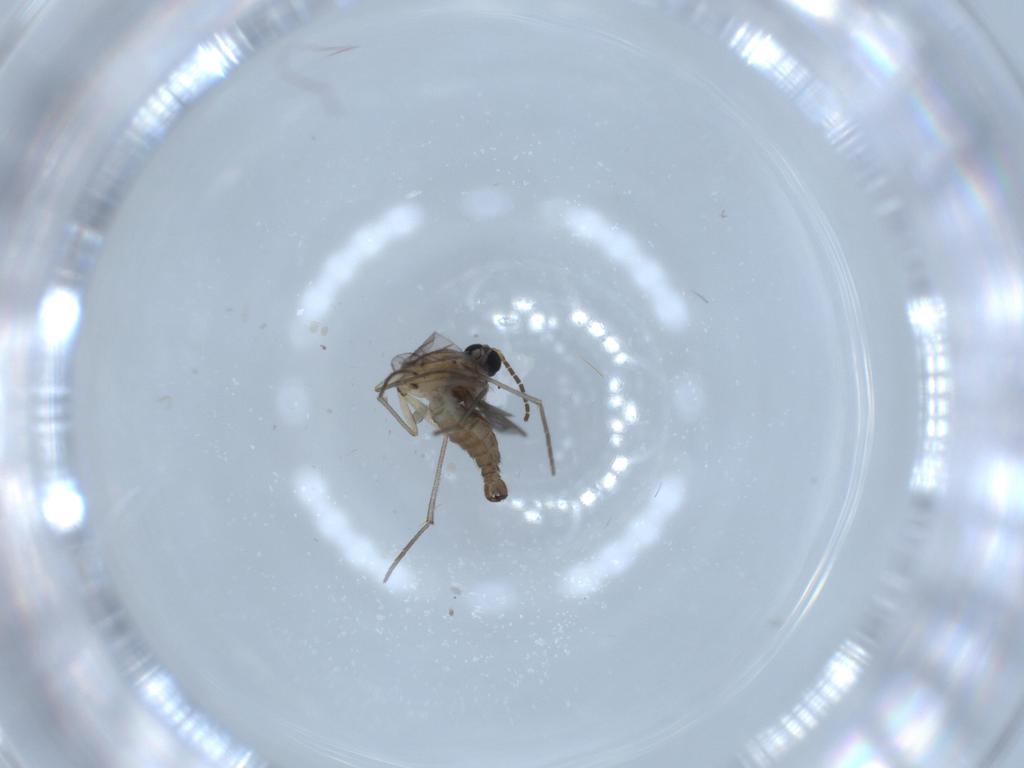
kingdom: Animalia
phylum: Arthropoda
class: Insecta
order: Diptera
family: Sciaridae
